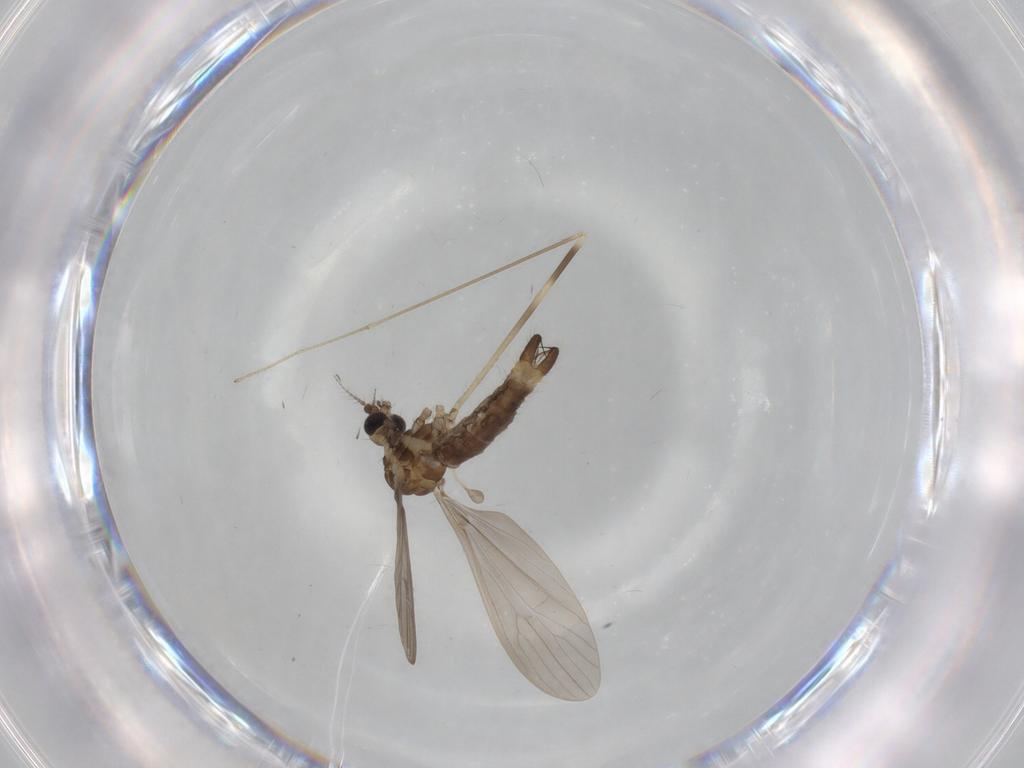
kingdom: Animalia
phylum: Arthropoda
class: Insecta
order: Diptera
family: Limoniidae
